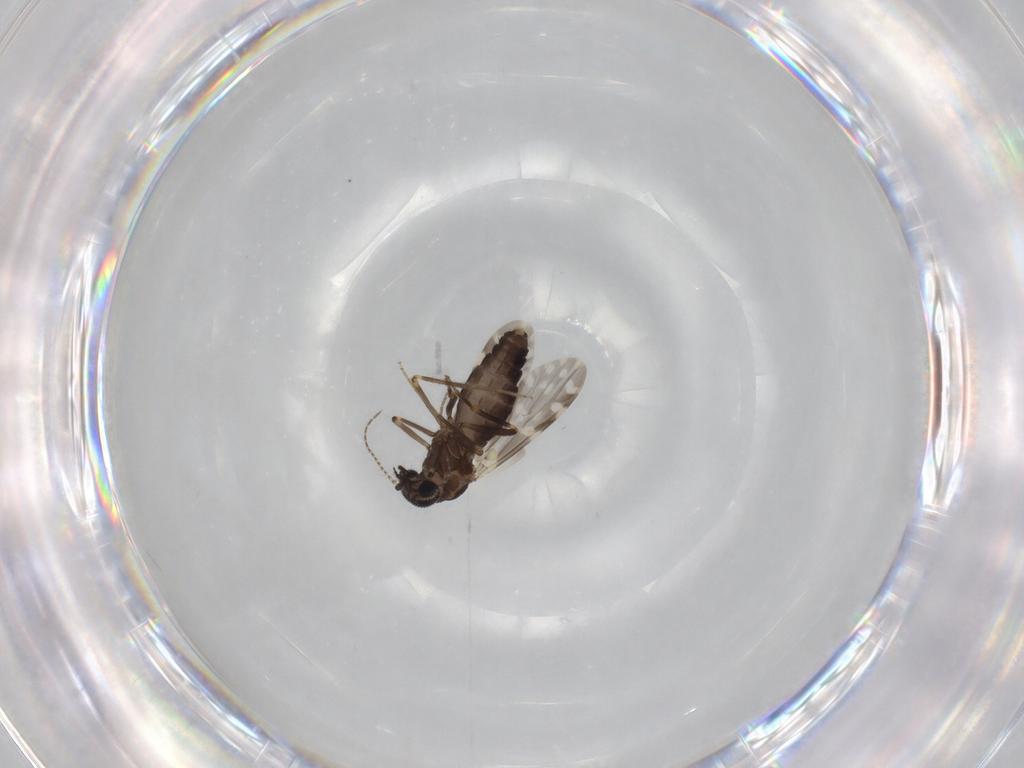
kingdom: Animalia
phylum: Arthropoda
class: Insecta
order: Diptera
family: Ceratopogonidae
